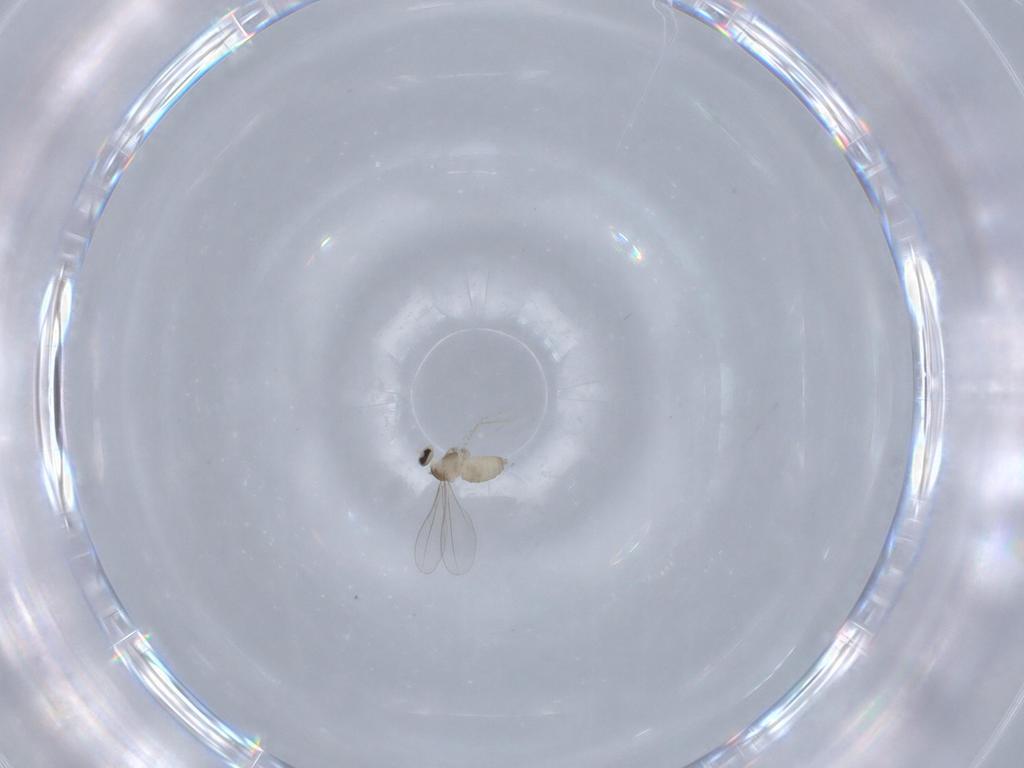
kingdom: Animalia
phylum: Arthropoda
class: Insecta
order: Diptera
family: Cecidomyiidae
